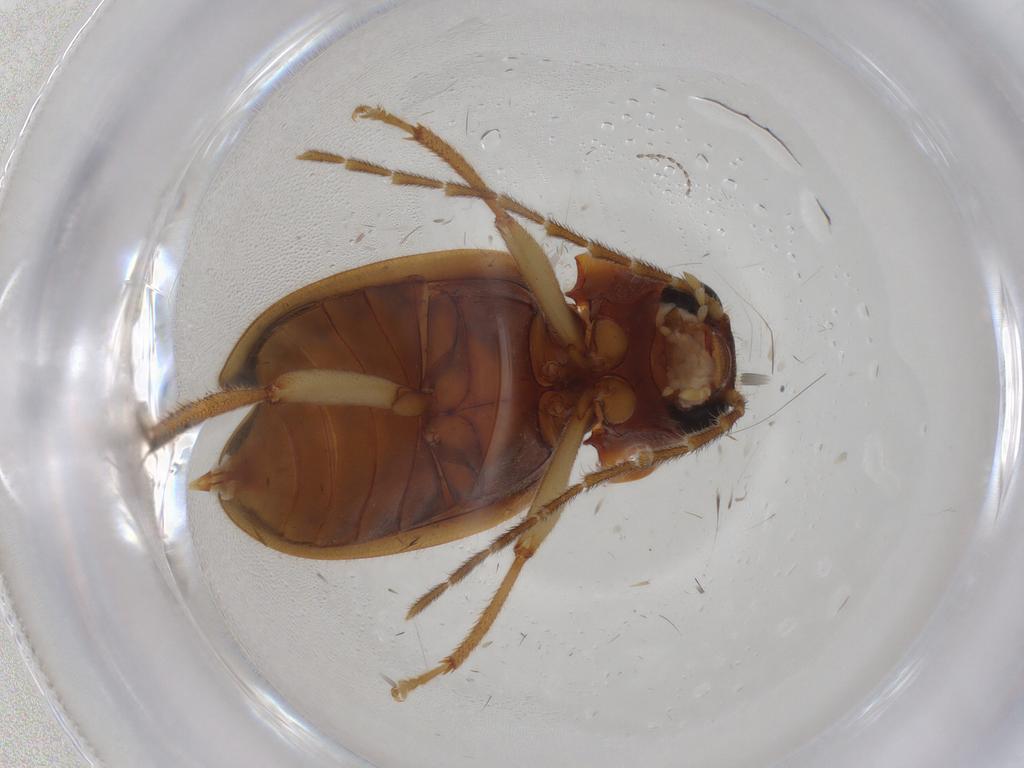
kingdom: Animalia
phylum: Arthropoda
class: Insecta
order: Coleoptera
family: Ptilodactylidae
